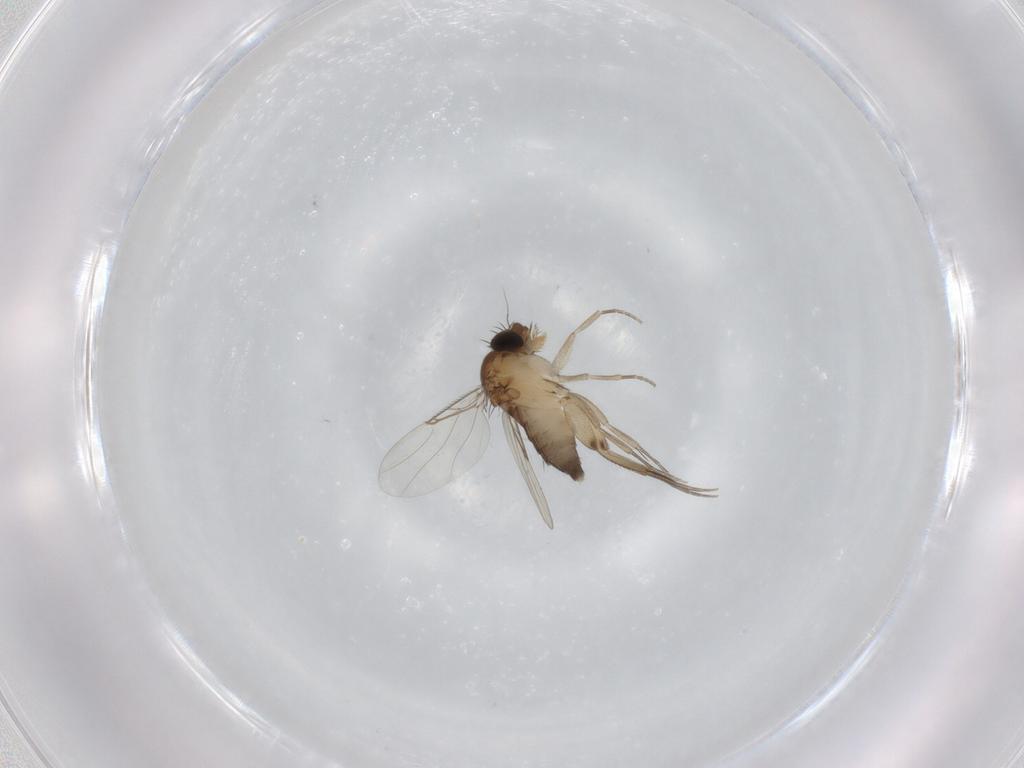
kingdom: Animalia
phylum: Arthropoda
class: Insecta
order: Diptera
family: Phoridae
